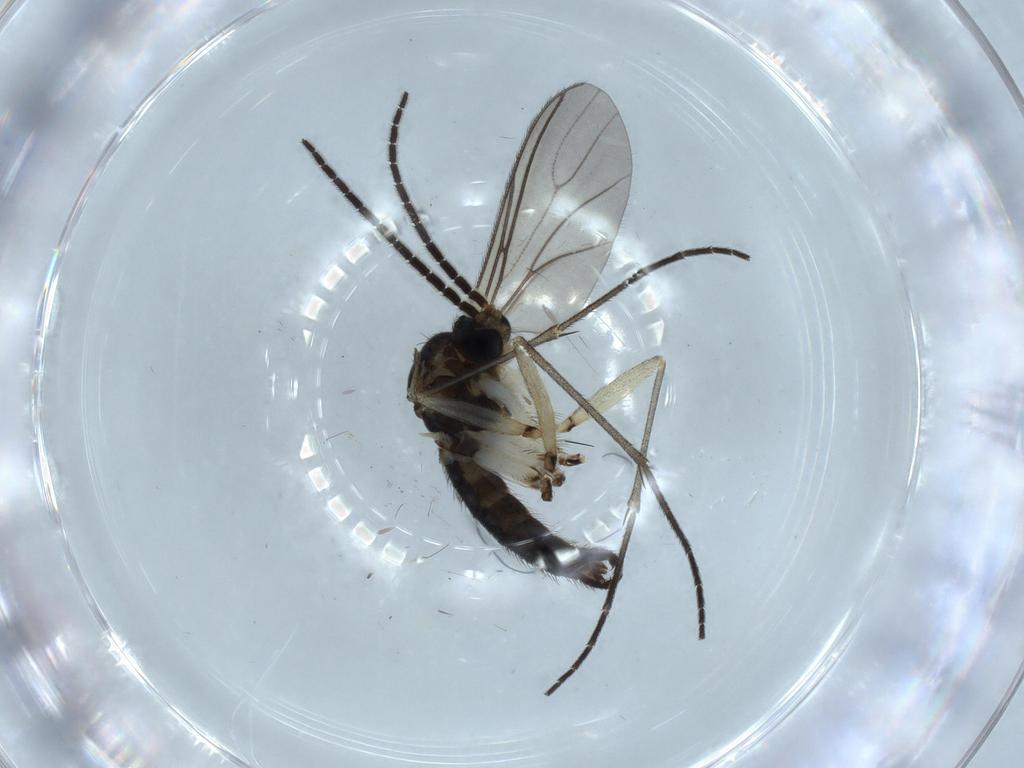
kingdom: Animalia
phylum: Arthropoda
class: Insecta
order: Diptera
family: Sciaridae
